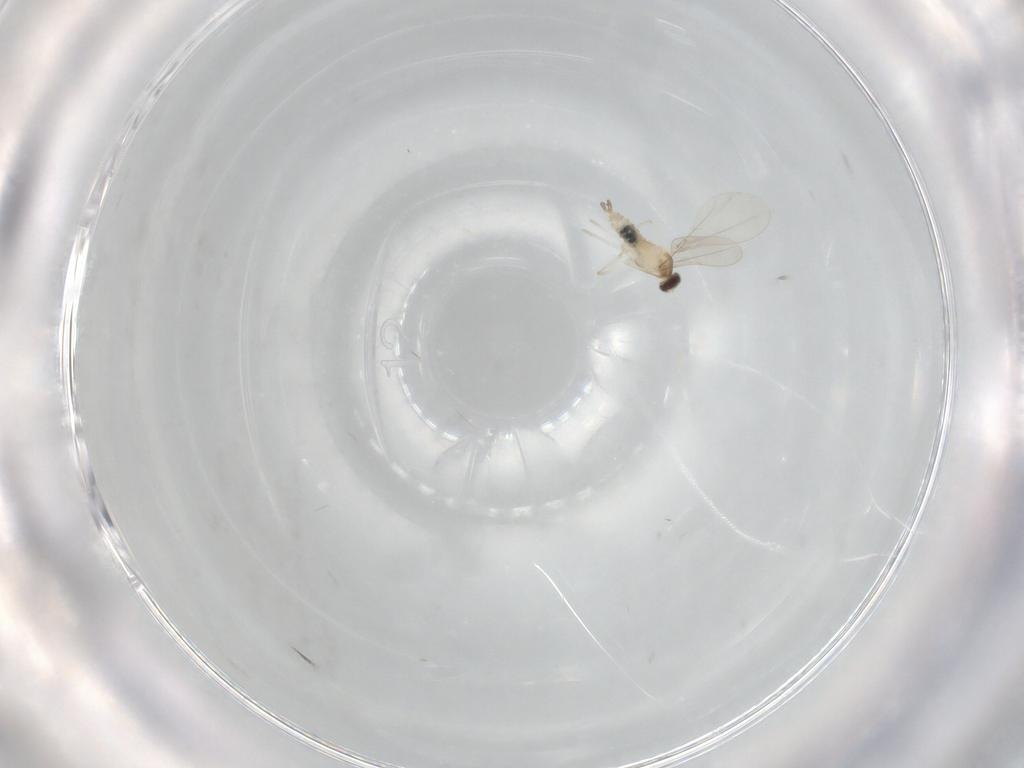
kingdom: Animalia
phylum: Arthropoda
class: Insecta
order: Diptera
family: Cecidomyiidae
